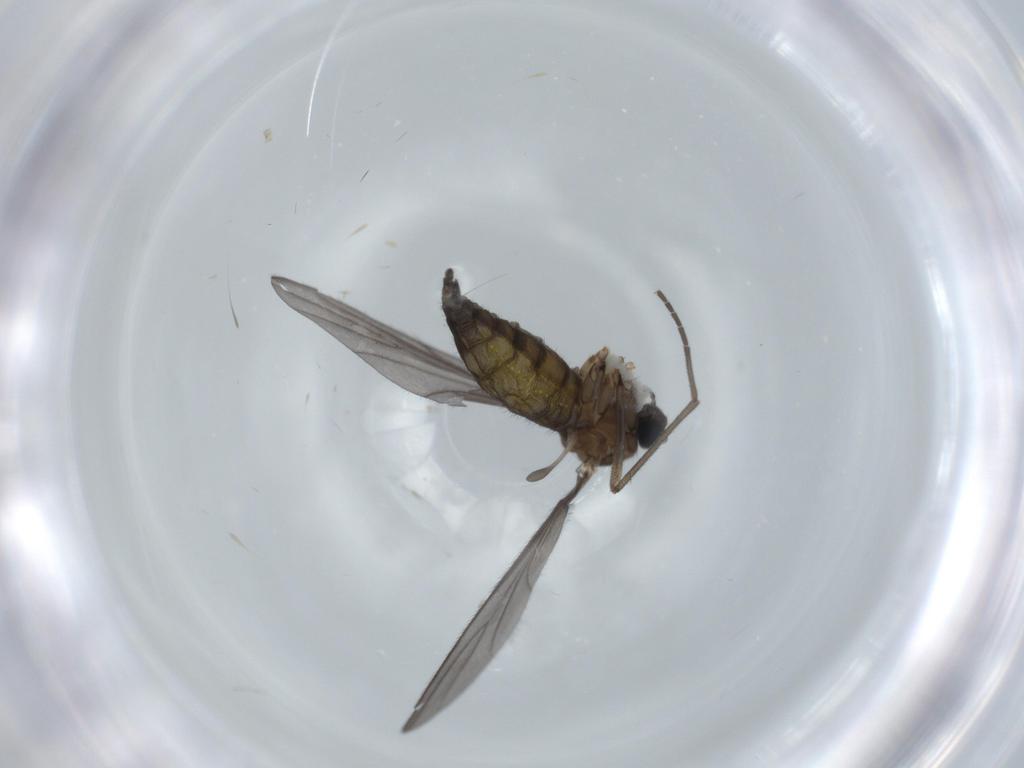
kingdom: Animalia
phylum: Arthropoda
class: Insecta
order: Diptera
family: Sciaridae
